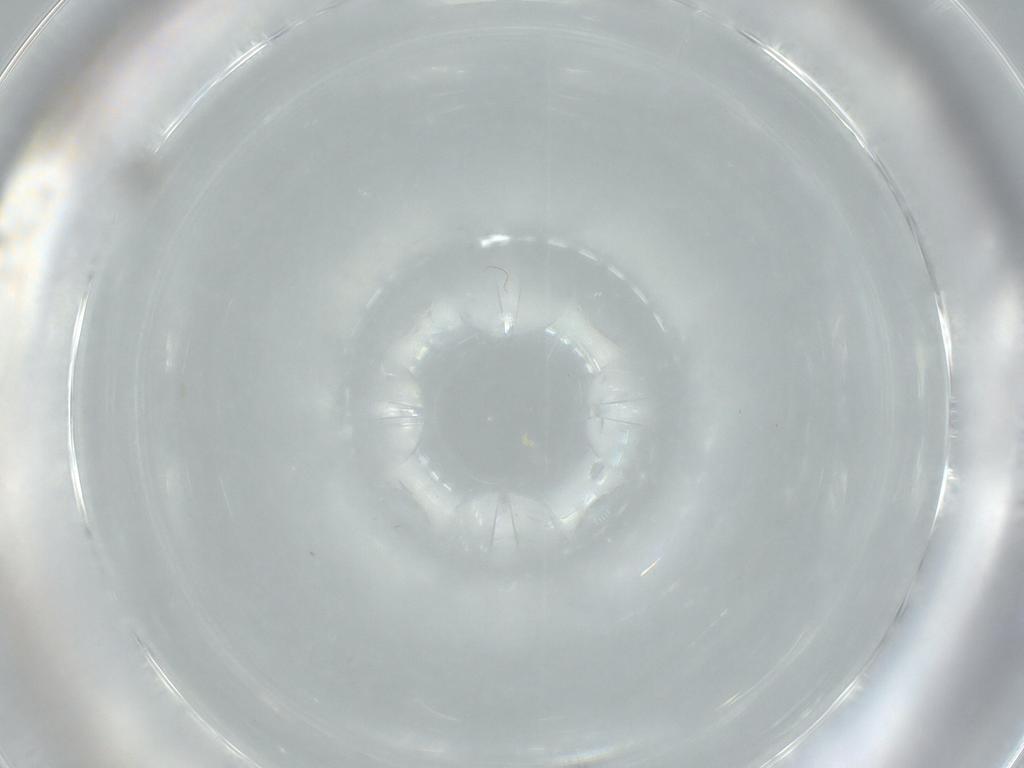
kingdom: Animalia
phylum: Arthropoda
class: Insecta
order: Diptera
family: Agromyzidae
